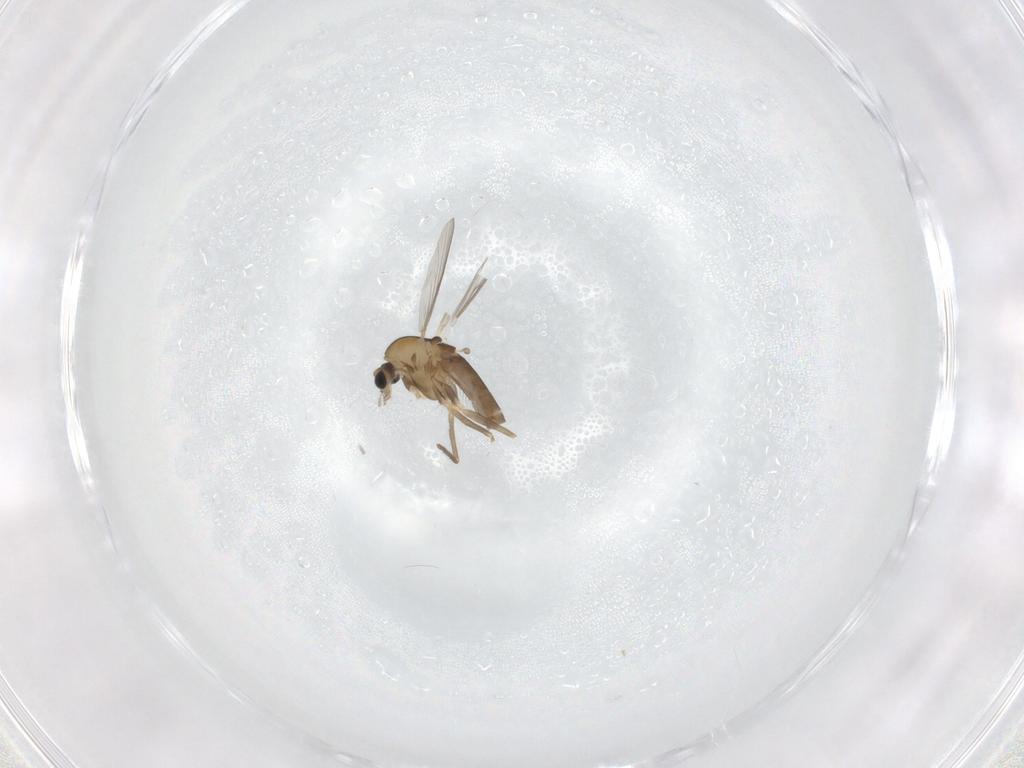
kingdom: Animalia
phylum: Arthropoda
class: Insecta
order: Diptera
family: Chironomidae
